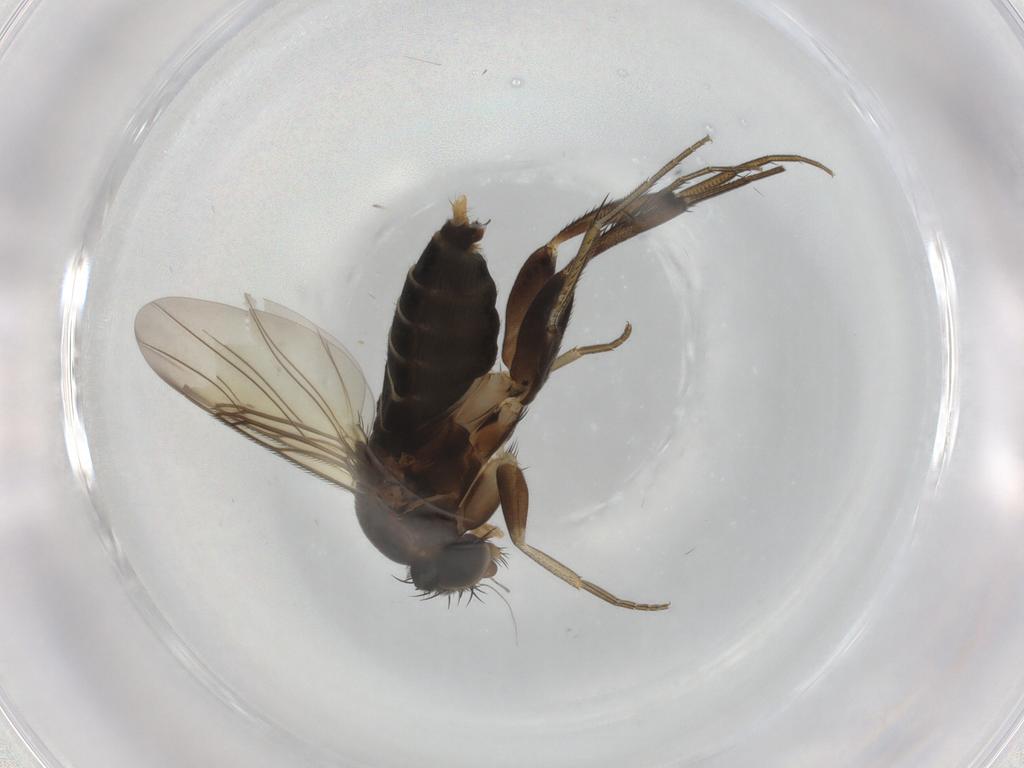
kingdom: Animalia
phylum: Arthropoda
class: Insecta
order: Diptera
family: Phoridae
